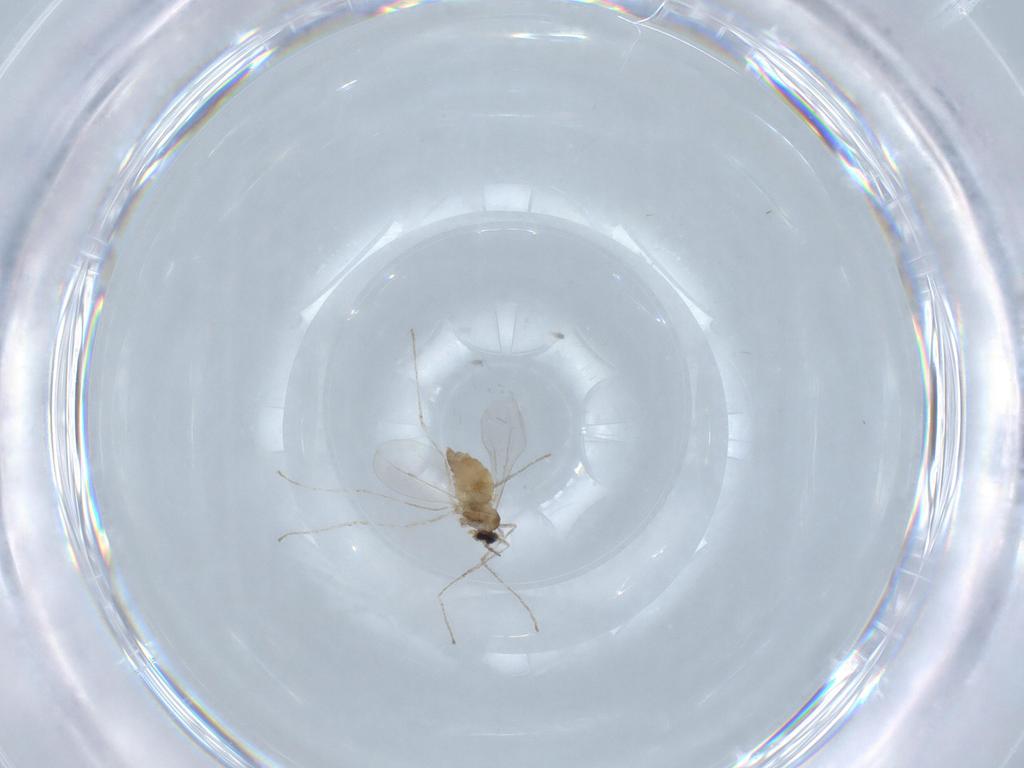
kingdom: Animalia
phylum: Arthropoda
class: Insecta
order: Diptera
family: Cecidomyiidae
